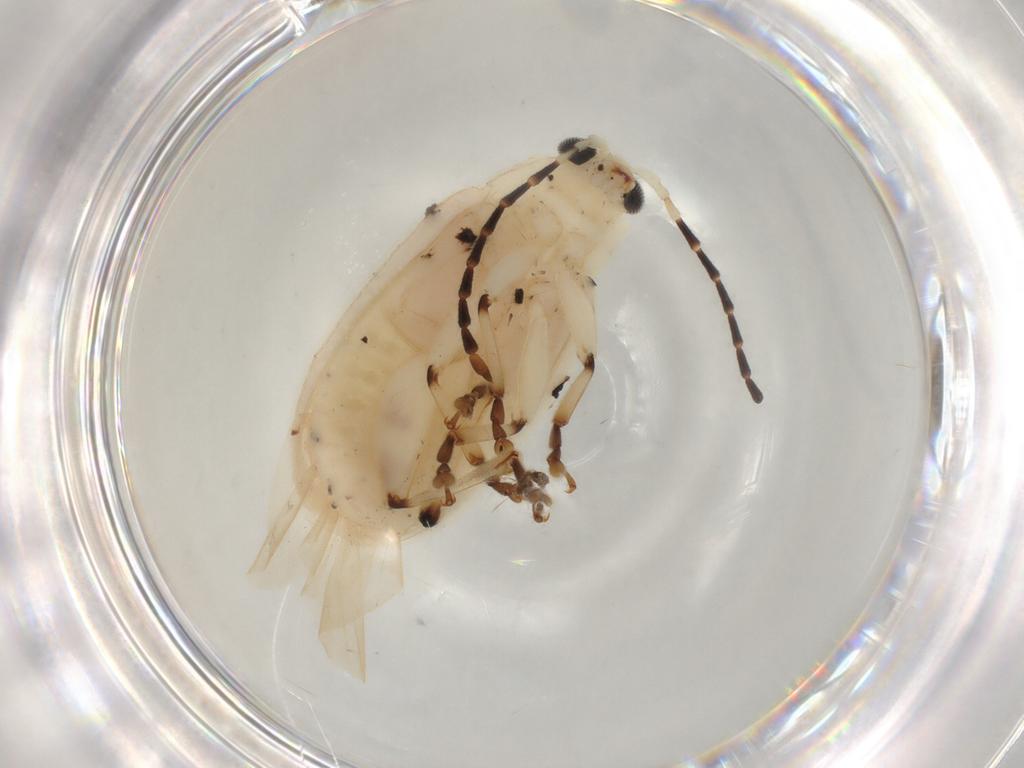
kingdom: Animalia
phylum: Arthropoda
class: Insecta
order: Coleoptera
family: Chrysomelidae
